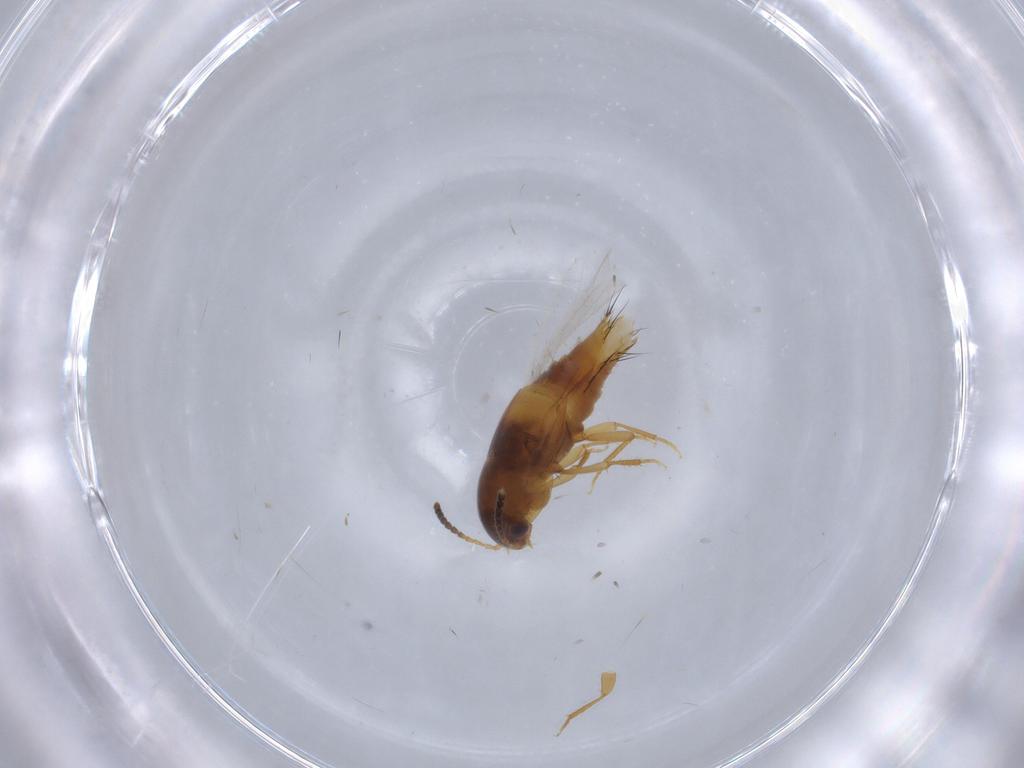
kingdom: Animalia
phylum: Arthropoda
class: Insecta
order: Coleoptera
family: Staphylinidae
